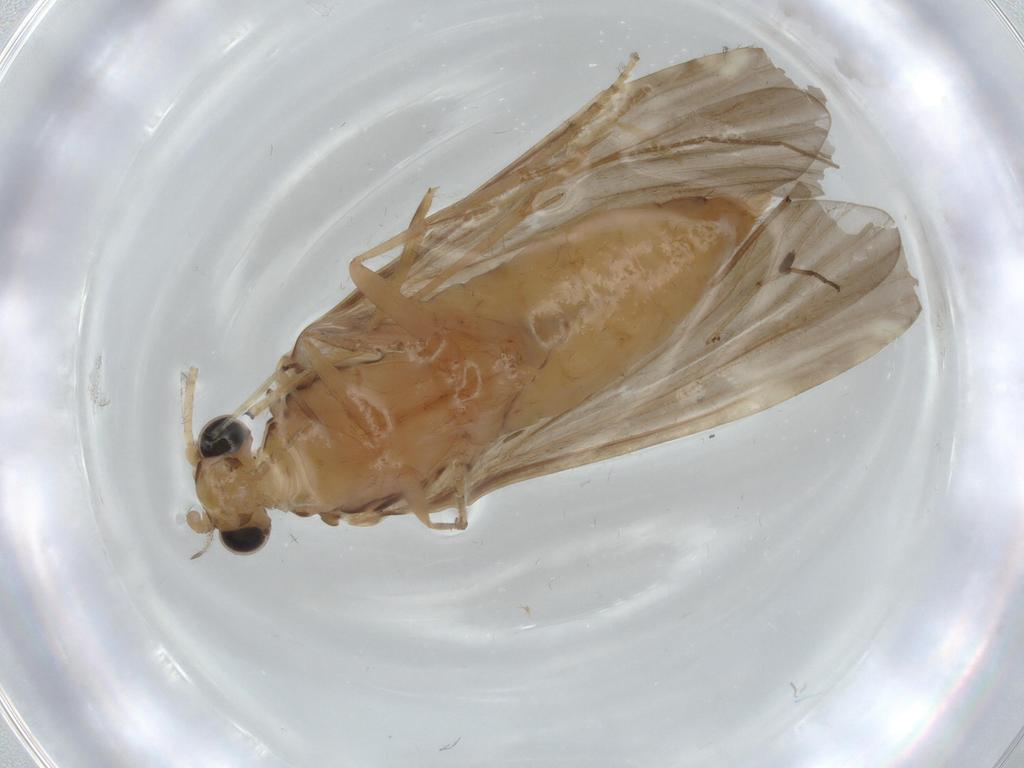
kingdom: Animalia
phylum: Arthropoda
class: Insecta
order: Trichoptera
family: Ecnomidae
